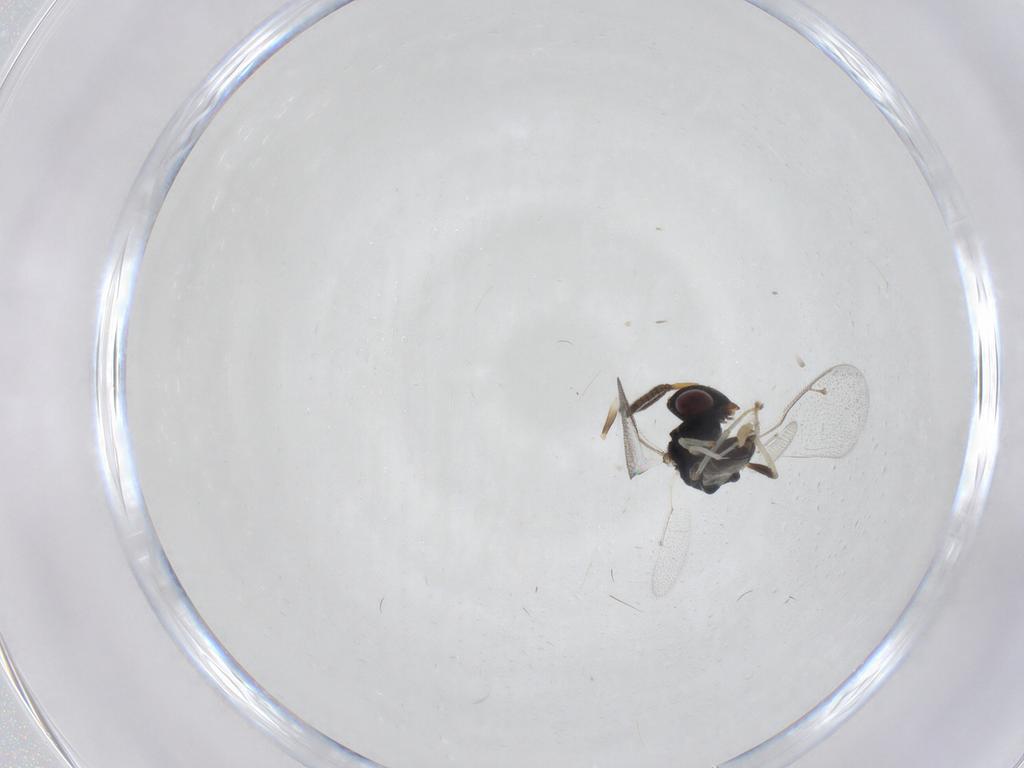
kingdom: Animalia
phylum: Arthropoda
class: Insecta
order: Hymenoptera
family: Pteromalidae
